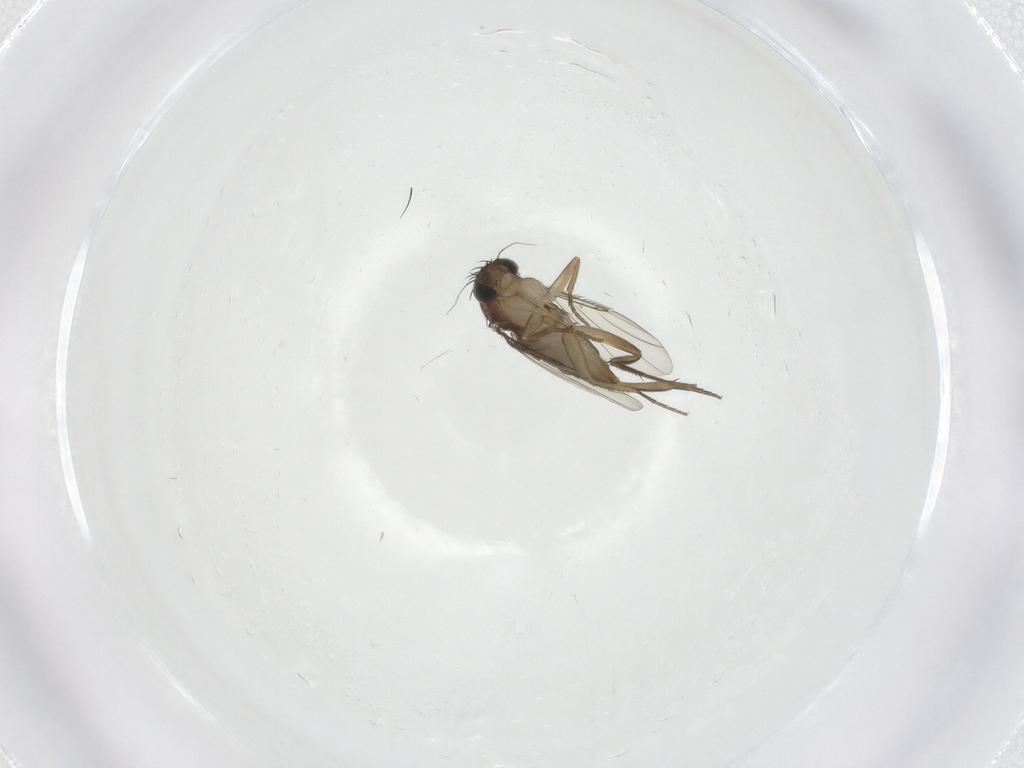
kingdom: Animalia
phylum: Arthropoda
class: Insecta
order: Diptera
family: Phoridae
